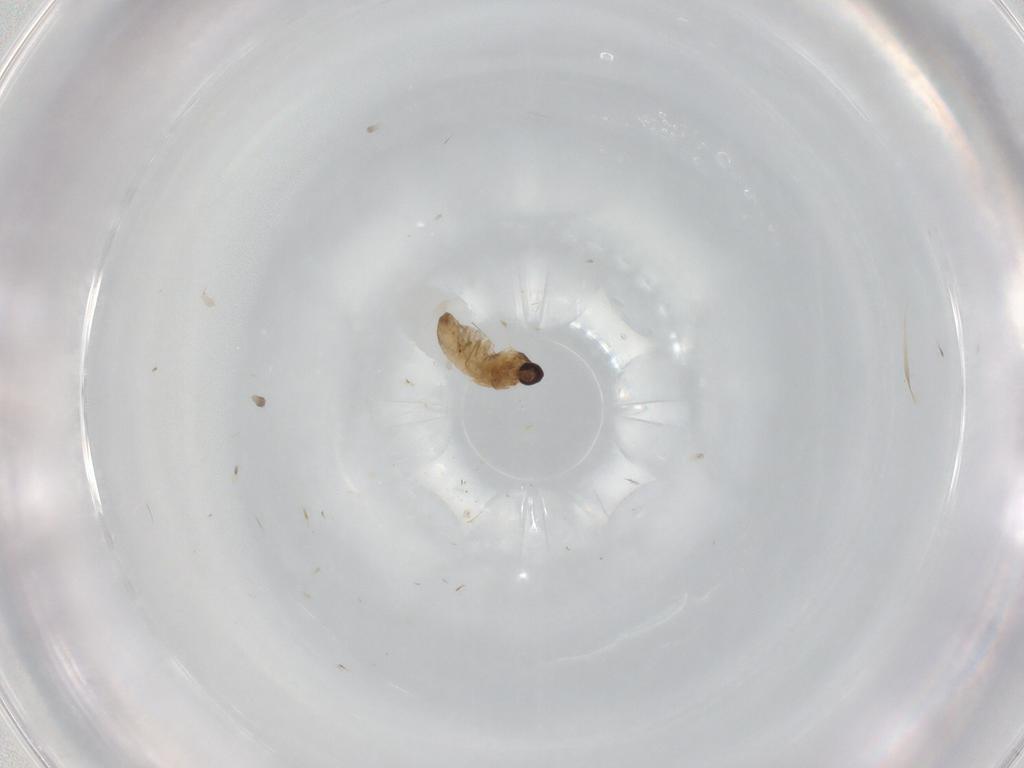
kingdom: Animalia
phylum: Arthropoda
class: Insecta
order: Diptera
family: Cecidomyiidae
